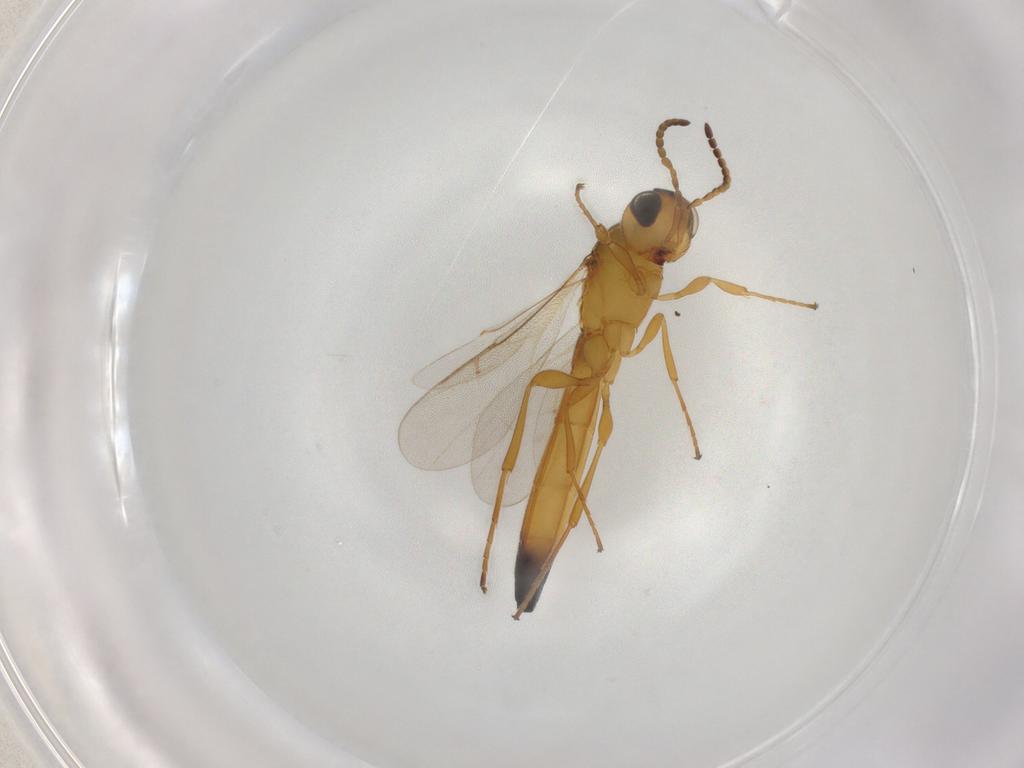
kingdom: Animalia
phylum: Arthropoda
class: Insecta
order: Hymenoptera
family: Scelionidae
